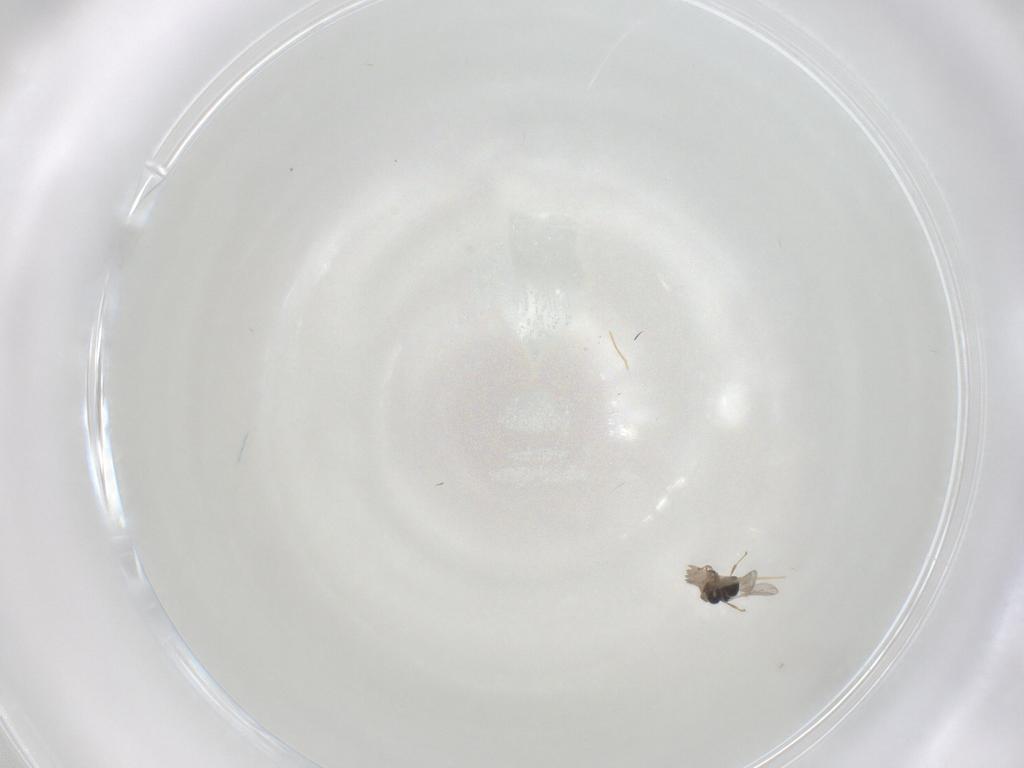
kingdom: Animalia
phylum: Arthropoda
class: Insecta
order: Hymenoptera
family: Scelionidae
